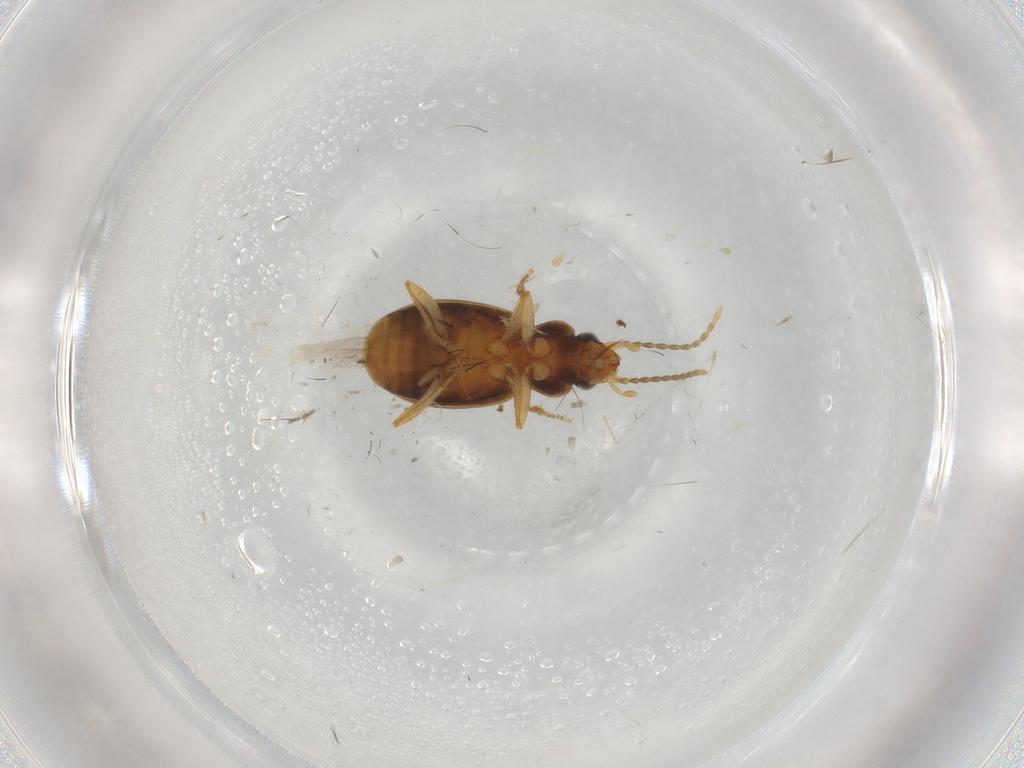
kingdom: Animalia
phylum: Arthropoda
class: Insecta
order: Coleoptera
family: Carabidae
